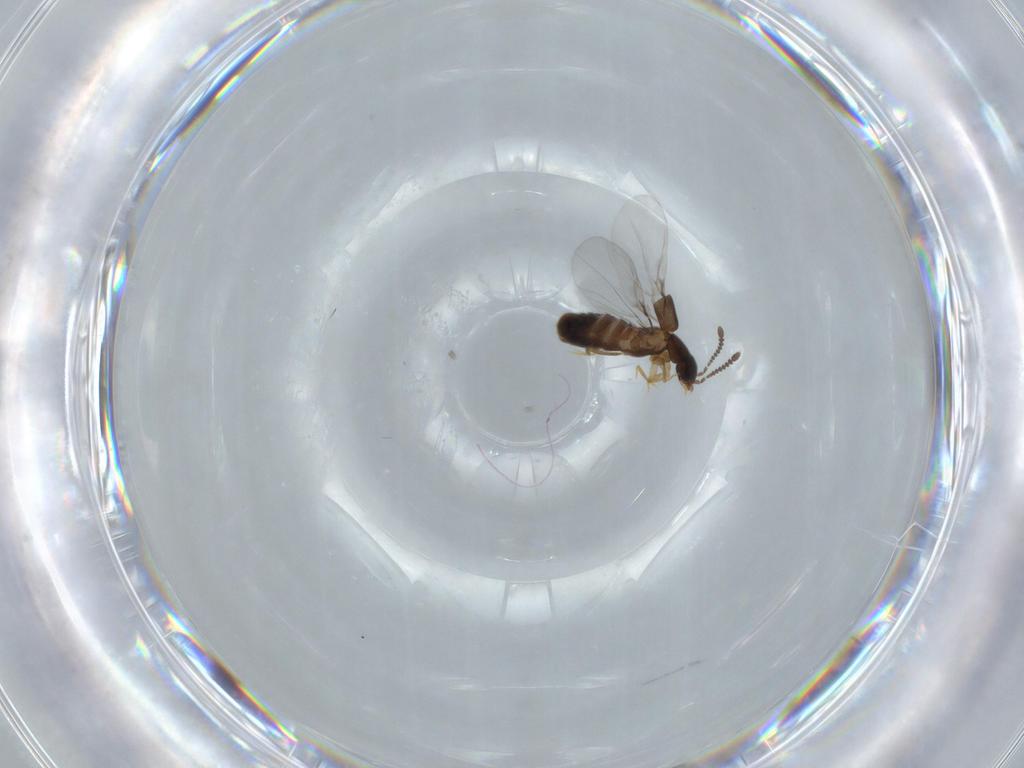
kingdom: Animalia
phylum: Arthropoda
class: Insecta
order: Coleoptera
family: Staphylinidae
